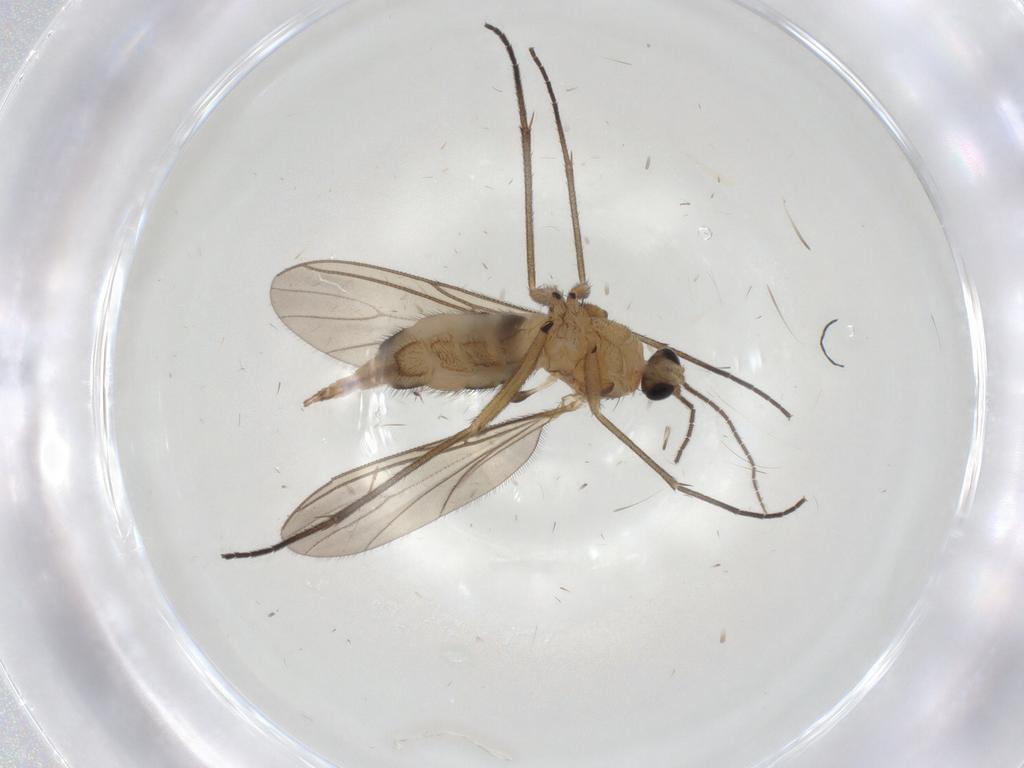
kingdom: Animalia
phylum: Arthropoda
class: Insecta
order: Diptera
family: Sciaridae
